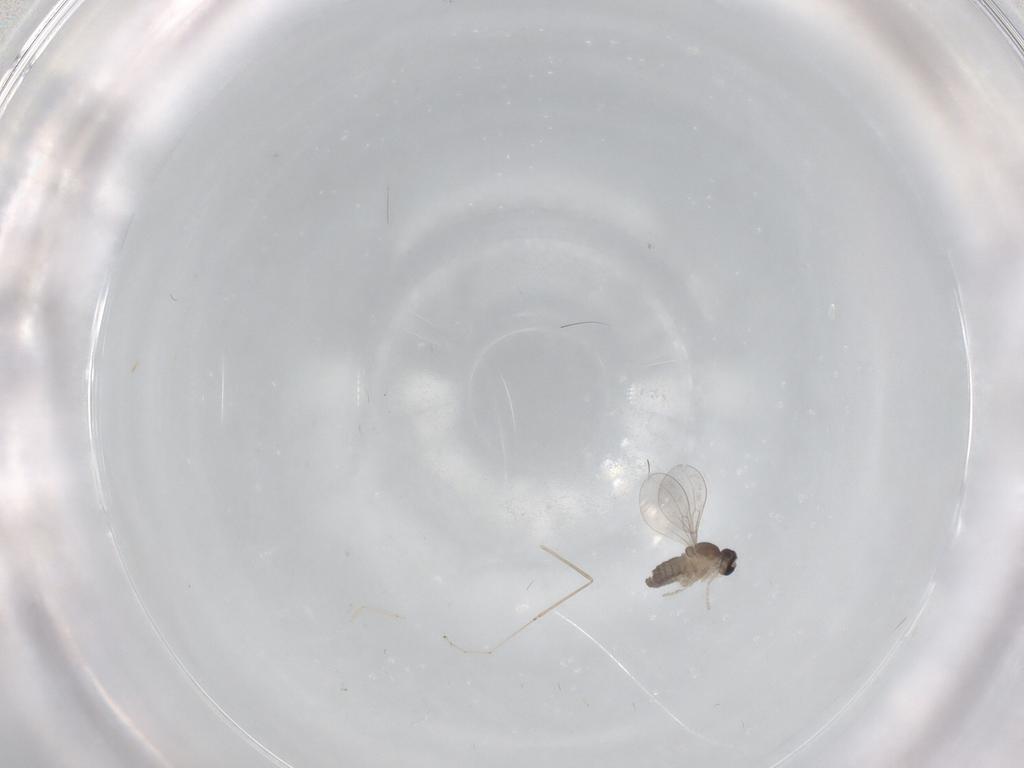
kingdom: Animalia
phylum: Arthropoda
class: Insecta
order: Diptera
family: Cecidomyiidae
